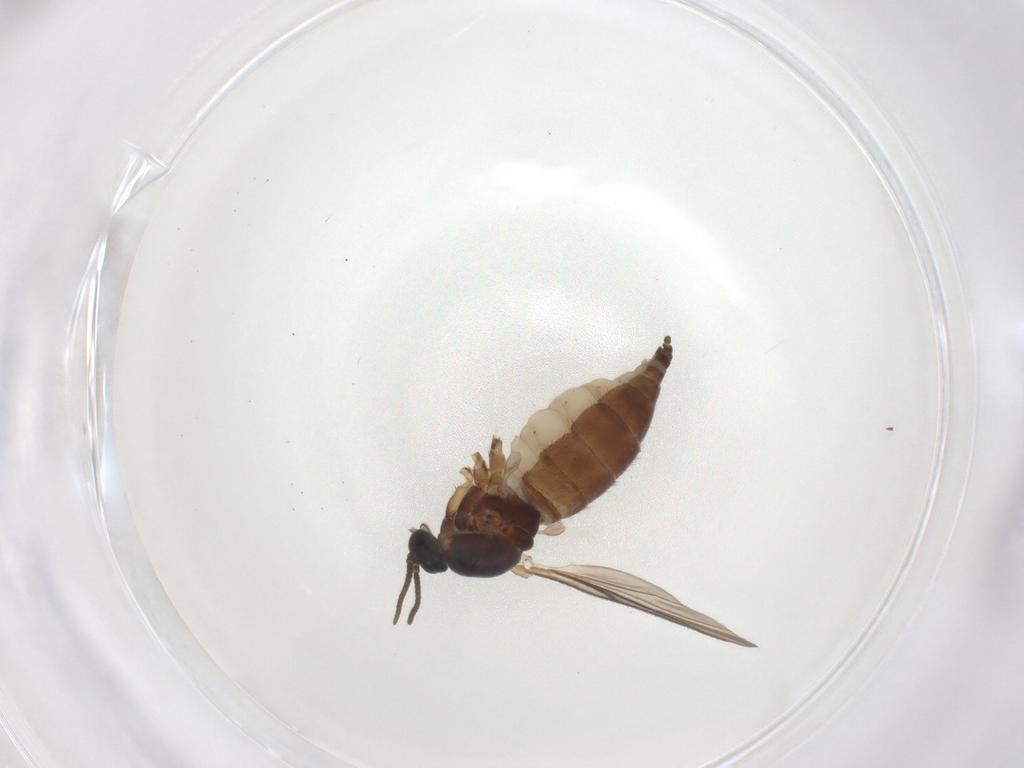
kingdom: Animalia
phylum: Arthropoda
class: Insecta
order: Diptera
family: Sciaridae
